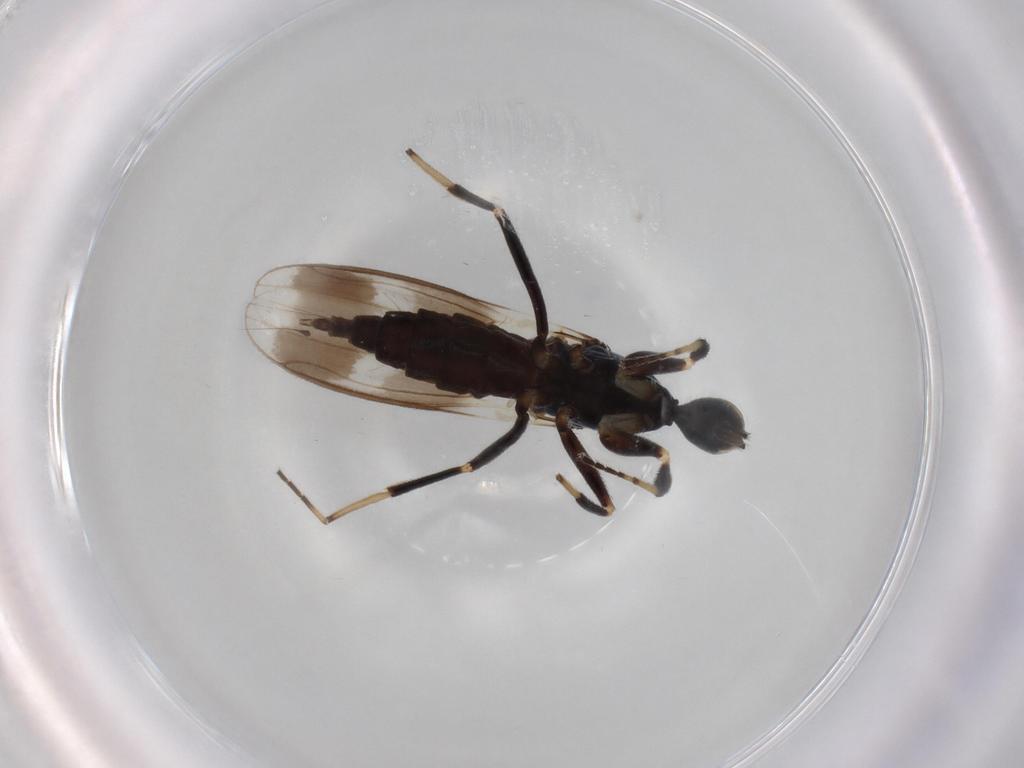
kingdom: Animalia
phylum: Arthropoda
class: Insecta
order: Diptera
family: Hybotidae
